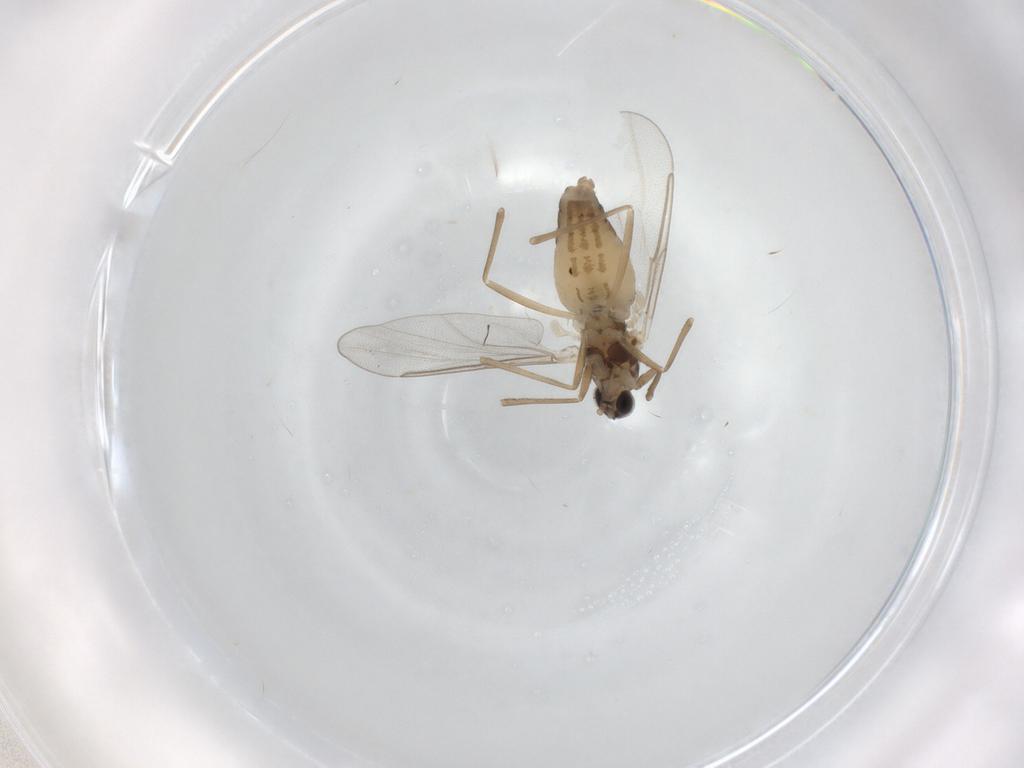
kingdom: Animalia
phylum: Arthropoda
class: Insecta
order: Diptera
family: Cecidomyiidae
